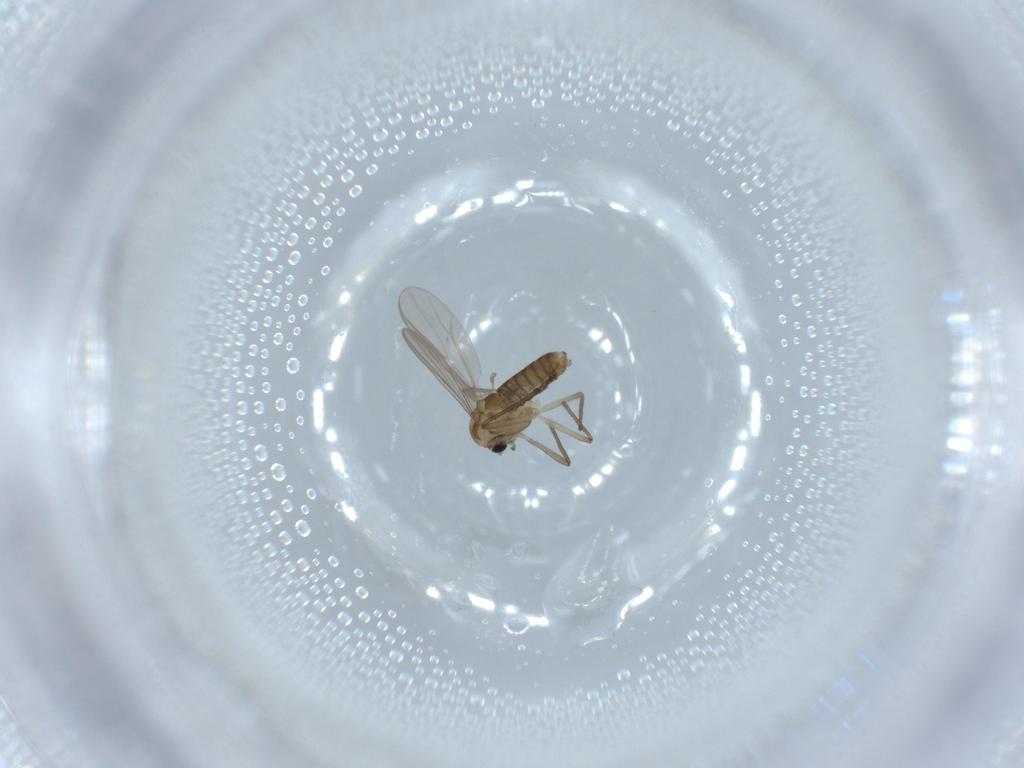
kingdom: Animalia
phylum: Arthropoda
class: Insecta
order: Diptera
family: Chironomidae
